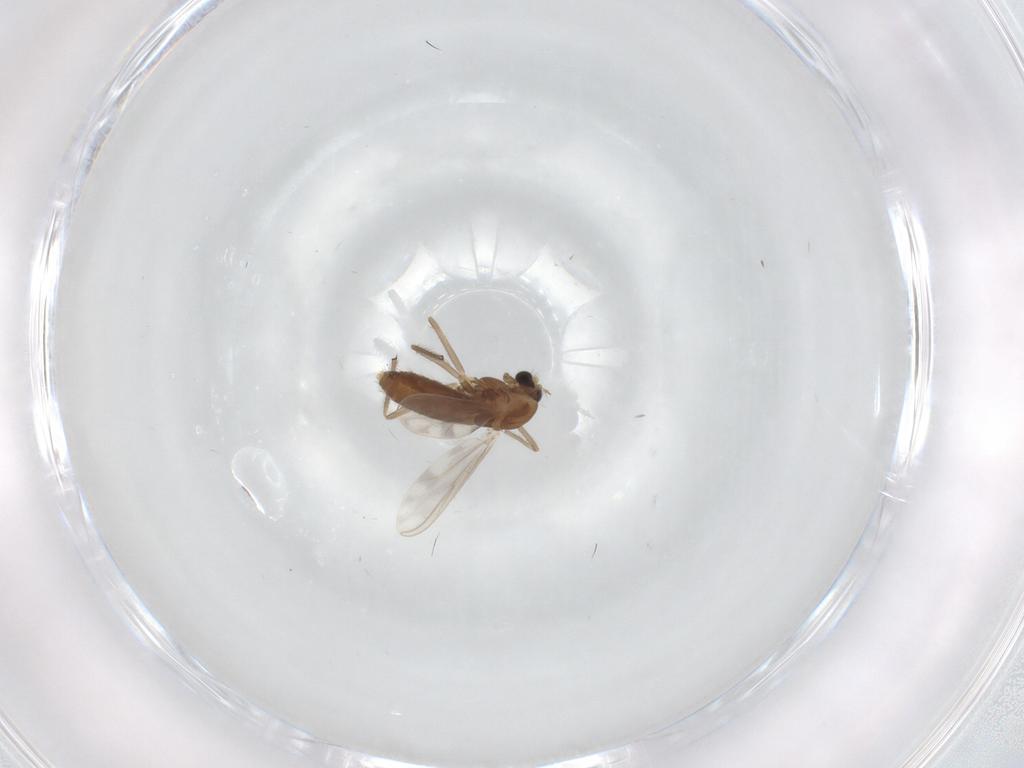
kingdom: Animalia
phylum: Arthropoda
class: Insecta
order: Diptera
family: Chironomidae
